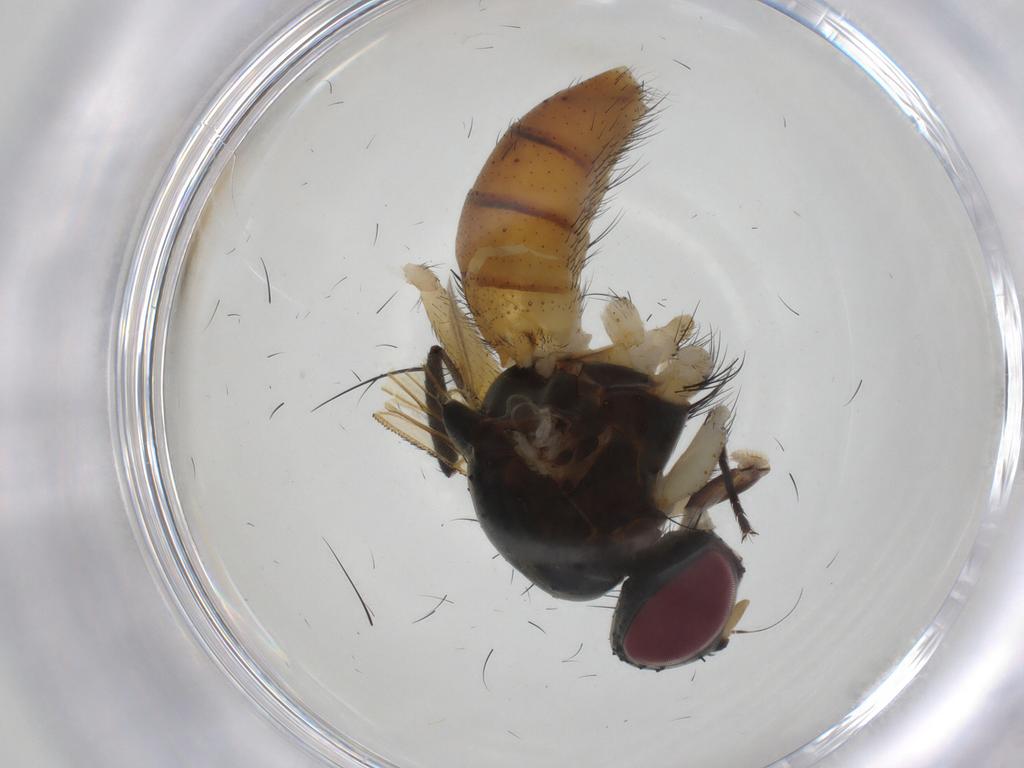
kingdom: Animalia
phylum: Arthropoda
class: Insecta
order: Diptera
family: Muscidae
